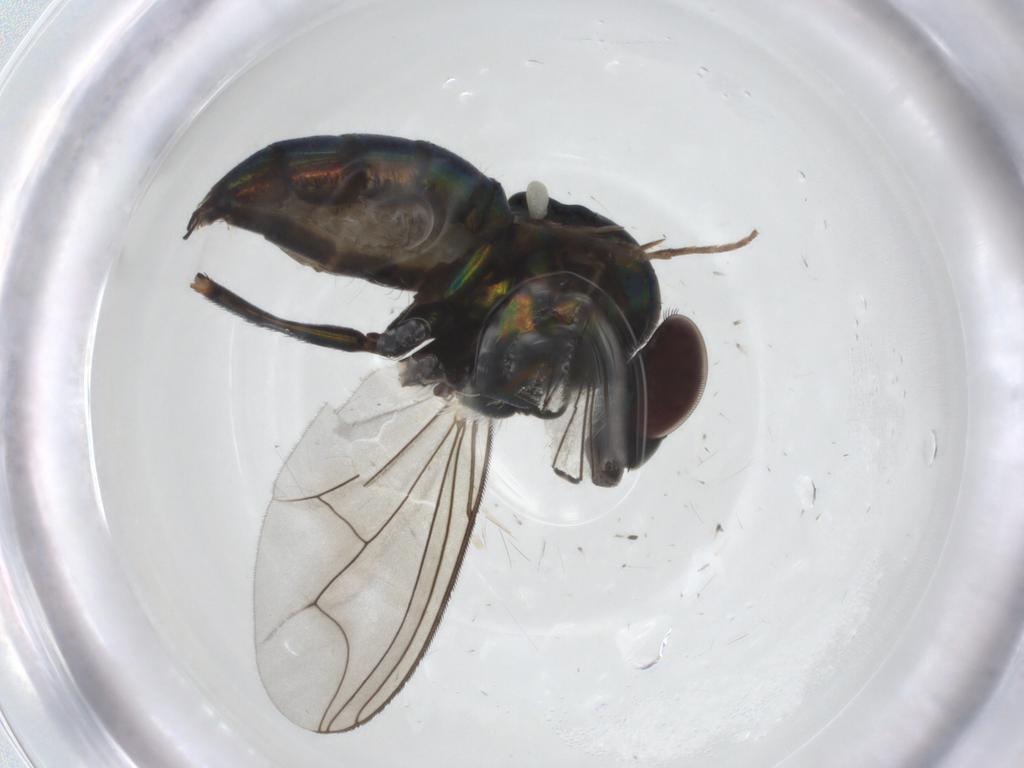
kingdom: Animalia
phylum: Arthropoda
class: Insecta
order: Diptera
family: Dolichopodidae
